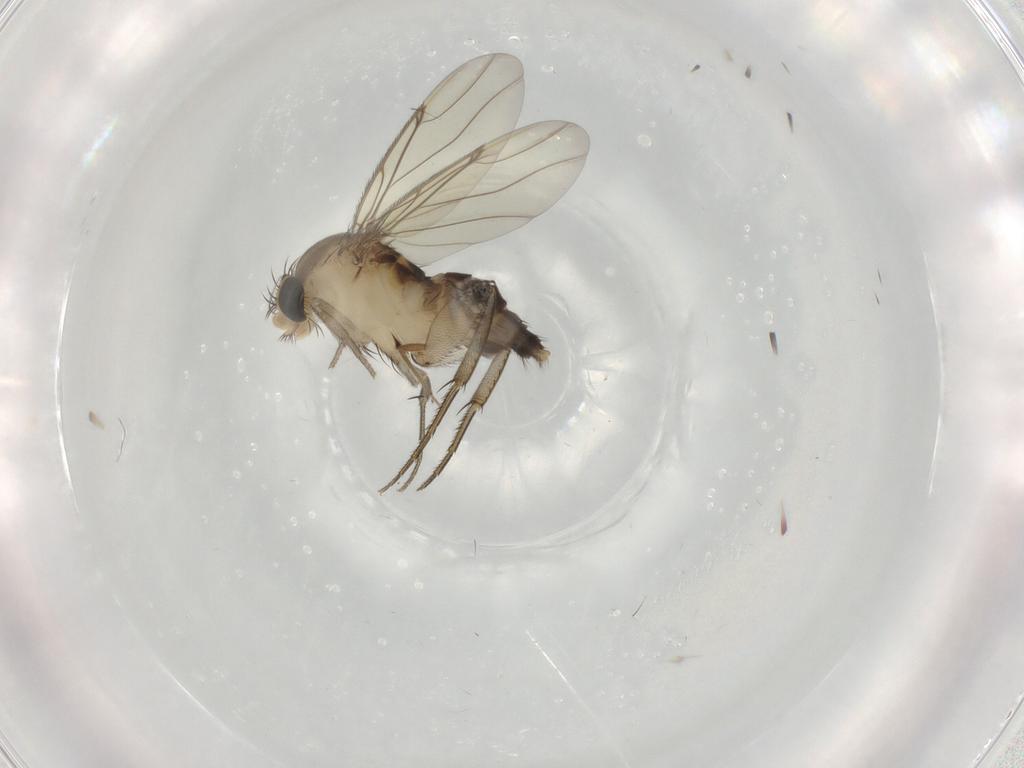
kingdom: Animalia
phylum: Arthropoda
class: Insecta
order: Diptera
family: Phoridae
